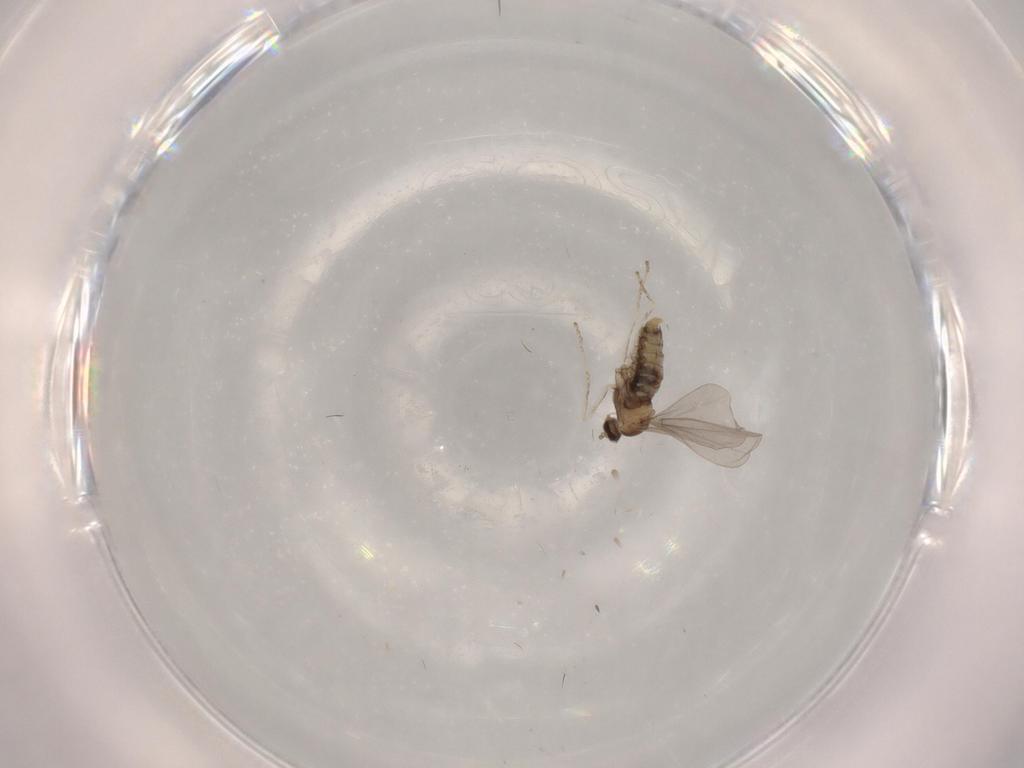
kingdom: Animalia
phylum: Arthropoda
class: Insecta
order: Diptera
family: Chironomidae
